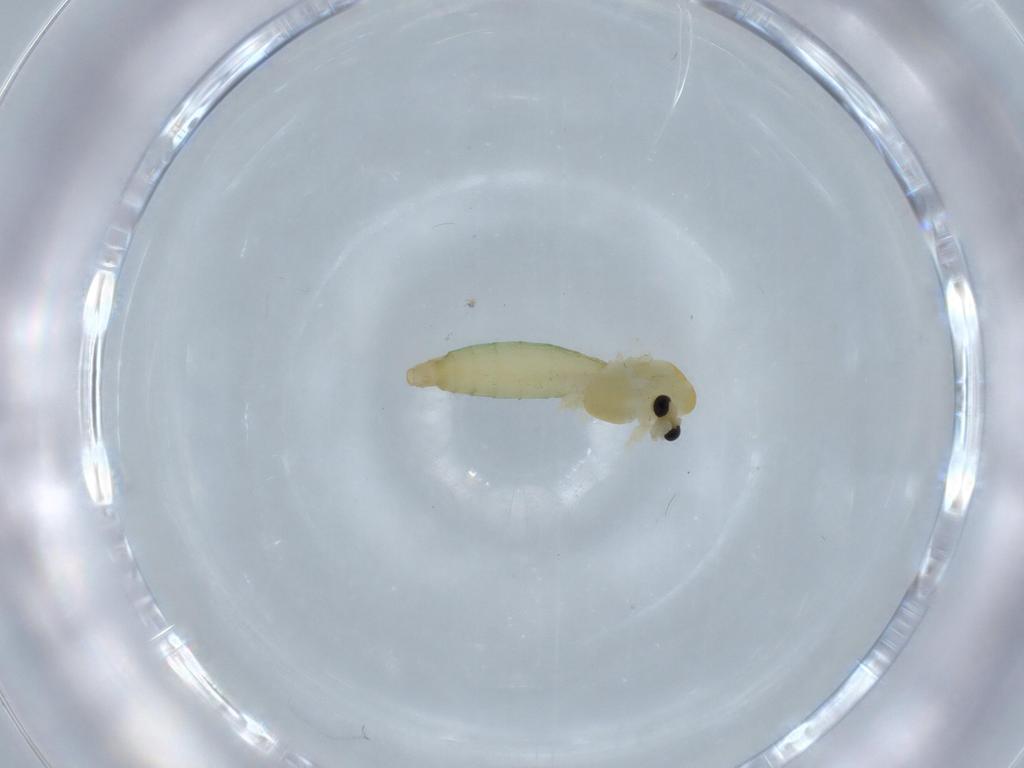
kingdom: Animalia
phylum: Arthropoda
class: Insecta
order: Diptera
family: Chironomidae
